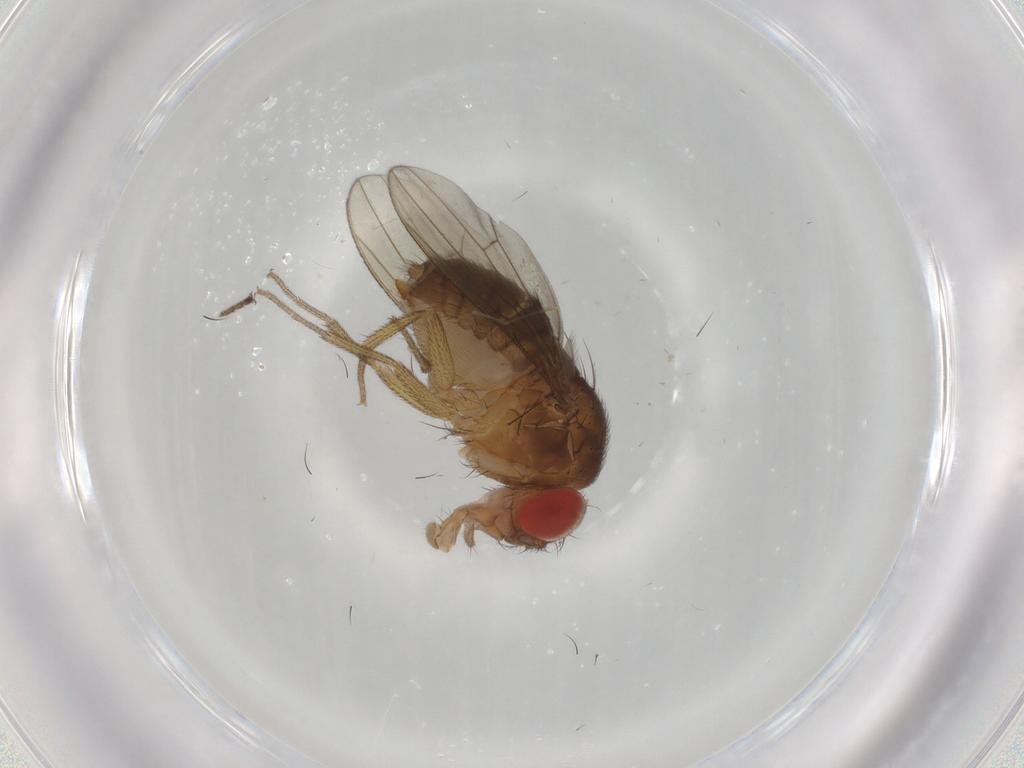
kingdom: Animalia
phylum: Arthropoda
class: Insecta
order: Diptera
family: Drosophilidae
